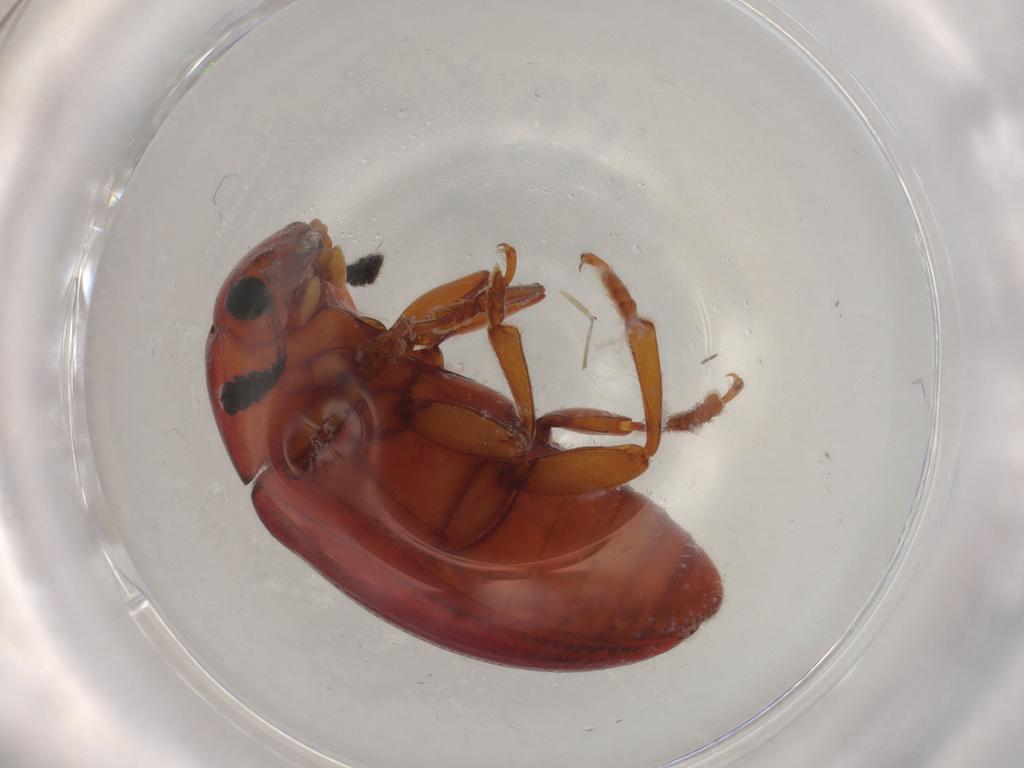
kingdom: Animalia
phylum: Arthropoda
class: Insecta
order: Coleoptera
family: Erotylidae
